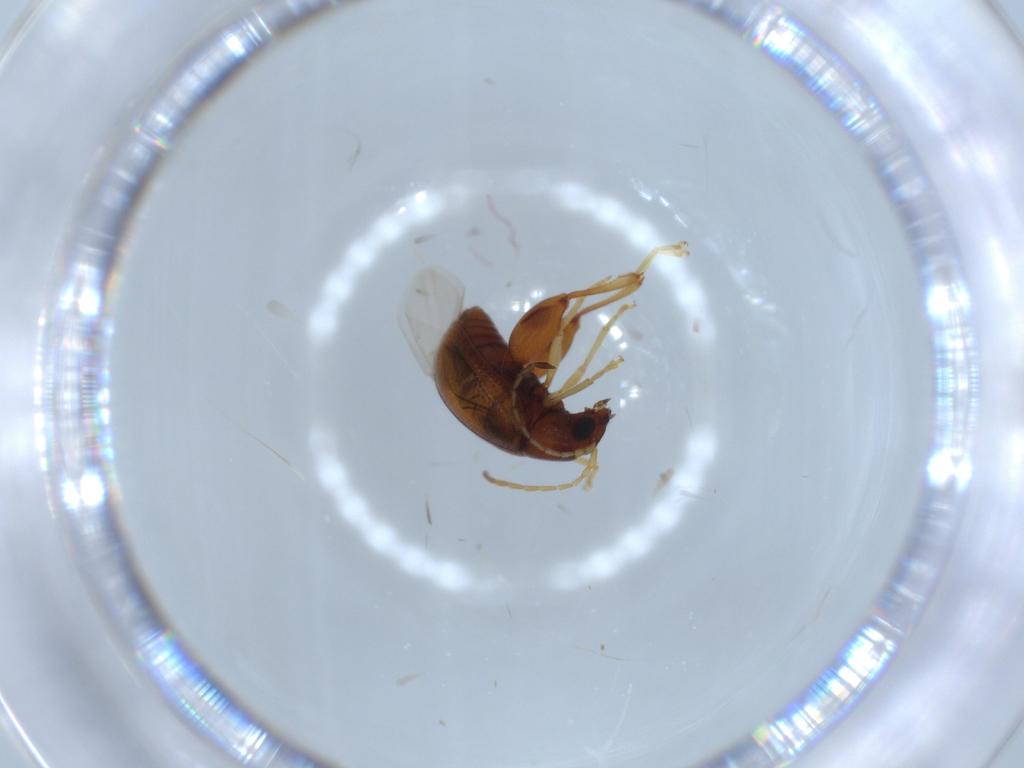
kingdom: Animalia
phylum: Arthropoda
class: Insecta
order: Coleoptera
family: Chrysomelidae
